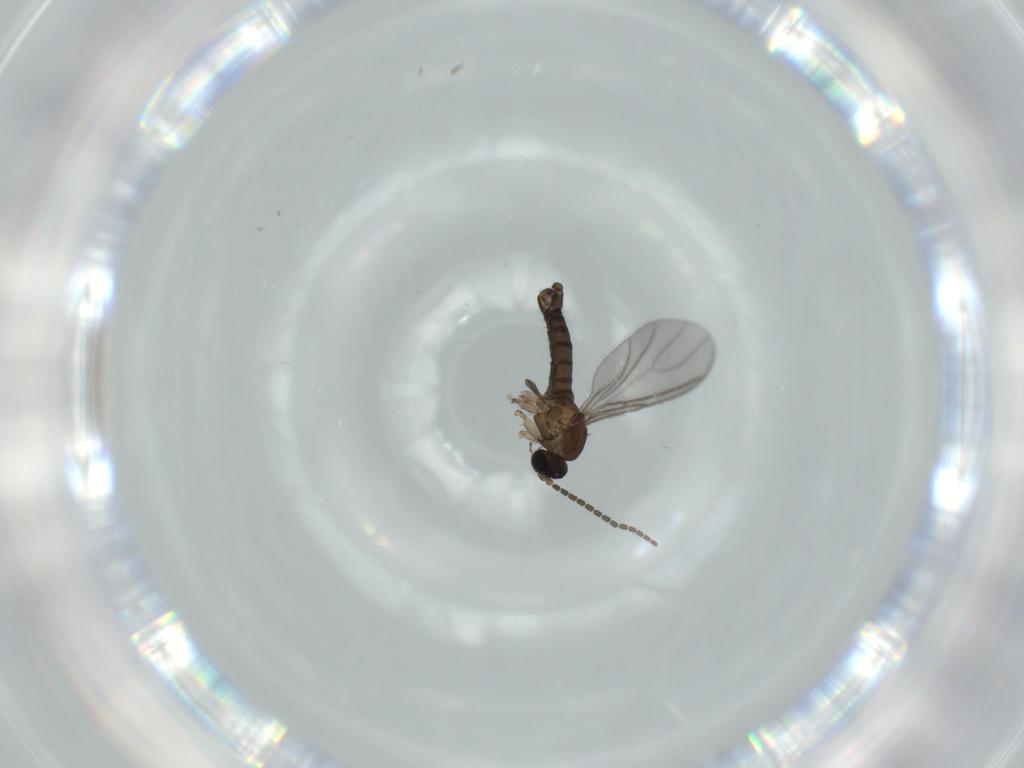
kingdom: Animalia
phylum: Arthropoda
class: Insecta
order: Diptera
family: Sciaridae
